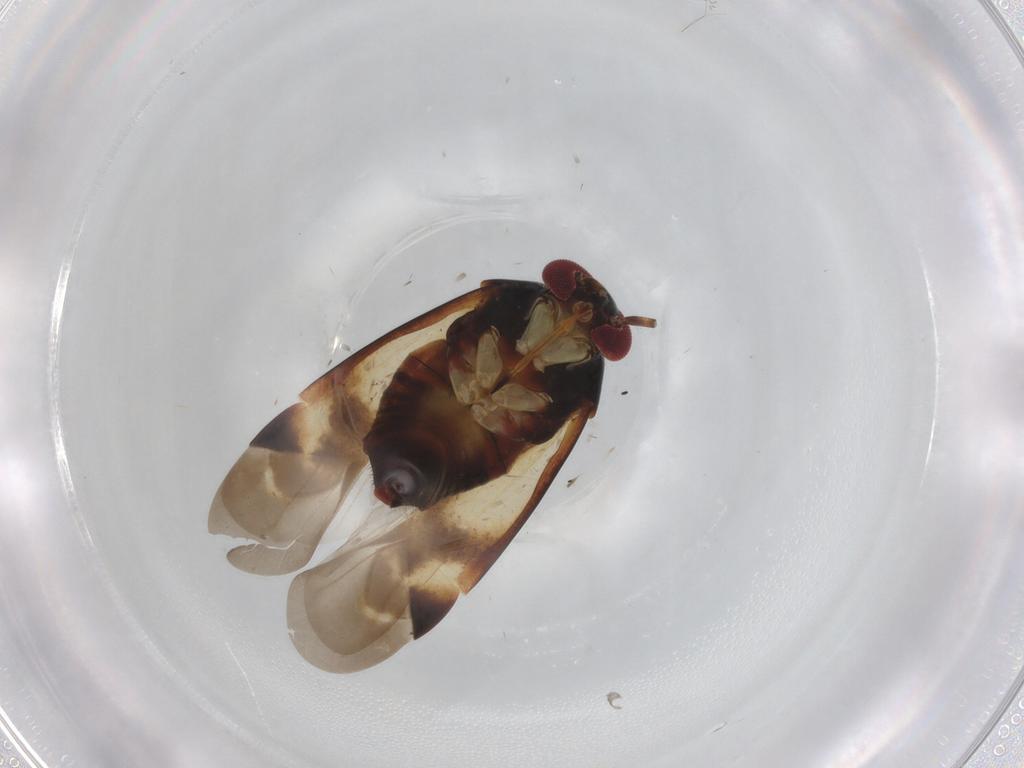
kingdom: Animalia
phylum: Arthropoda
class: Insecta
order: Hemiptera
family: Miridae
